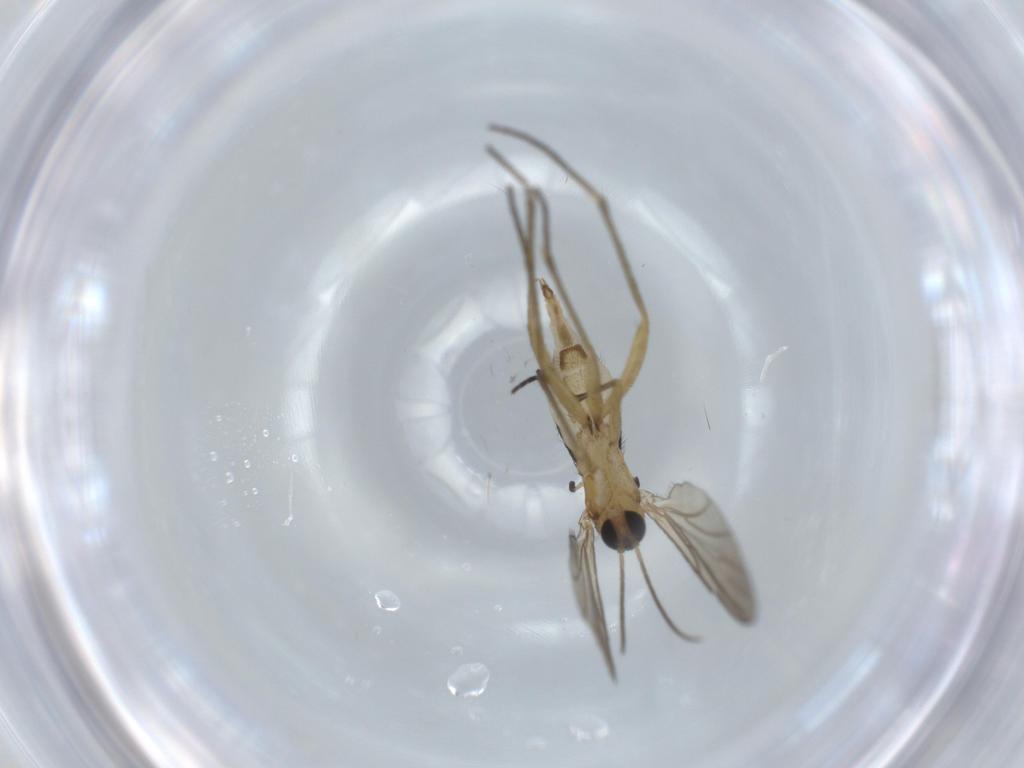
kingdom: Animalia
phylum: Arthropoda
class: Insecta
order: Diptera
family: Sciaridae
